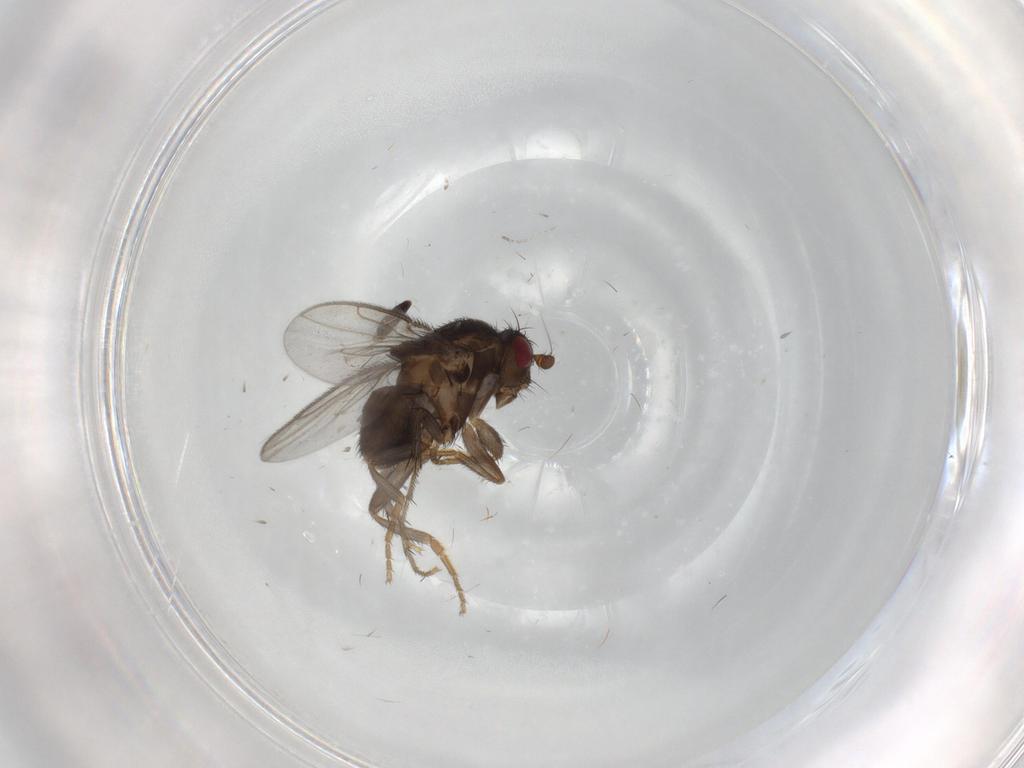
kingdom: Animalia
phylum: Arthropoda
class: Insecta
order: Diptera
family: Sphaeroceridae
